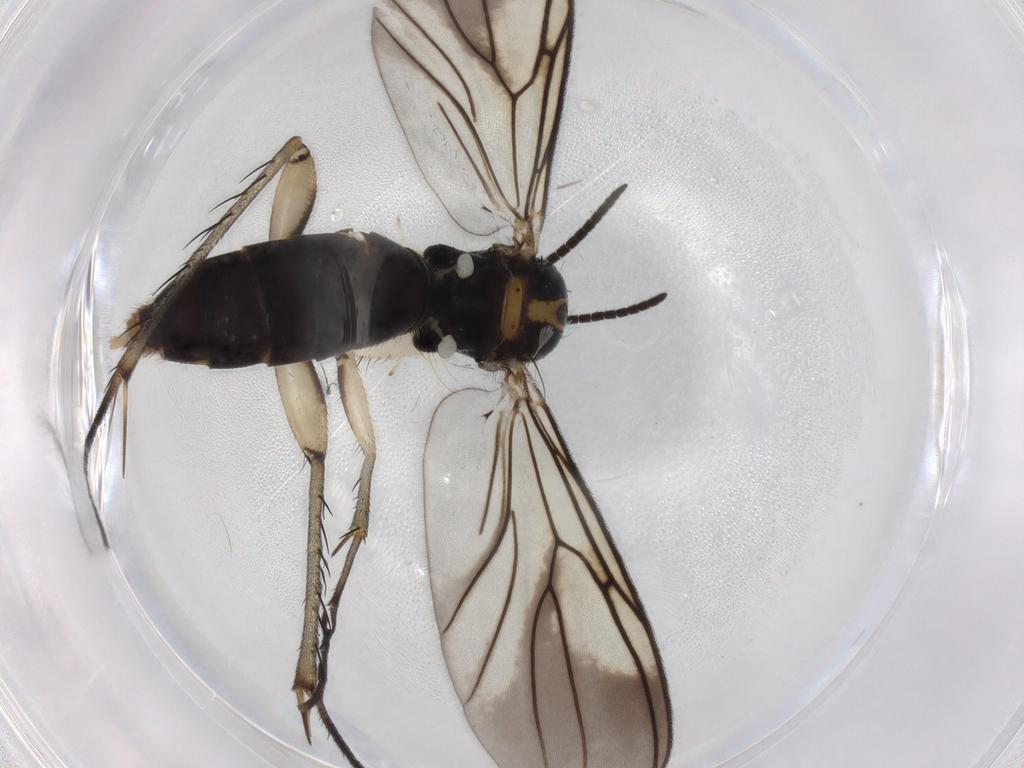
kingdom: Animalia
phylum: Arthropoda
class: Insecta
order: Diptera
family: Mycetophilidae
